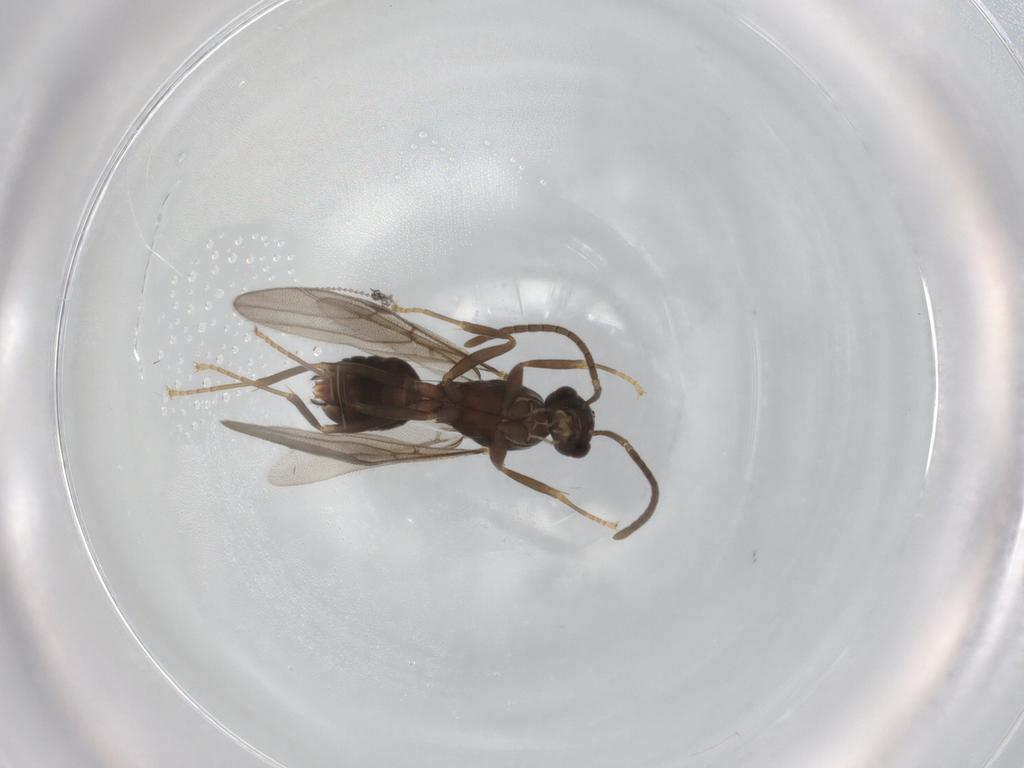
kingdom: Animalia
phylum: Arthropoda
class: Insecta
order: Hymenoptera
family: Formicidae
